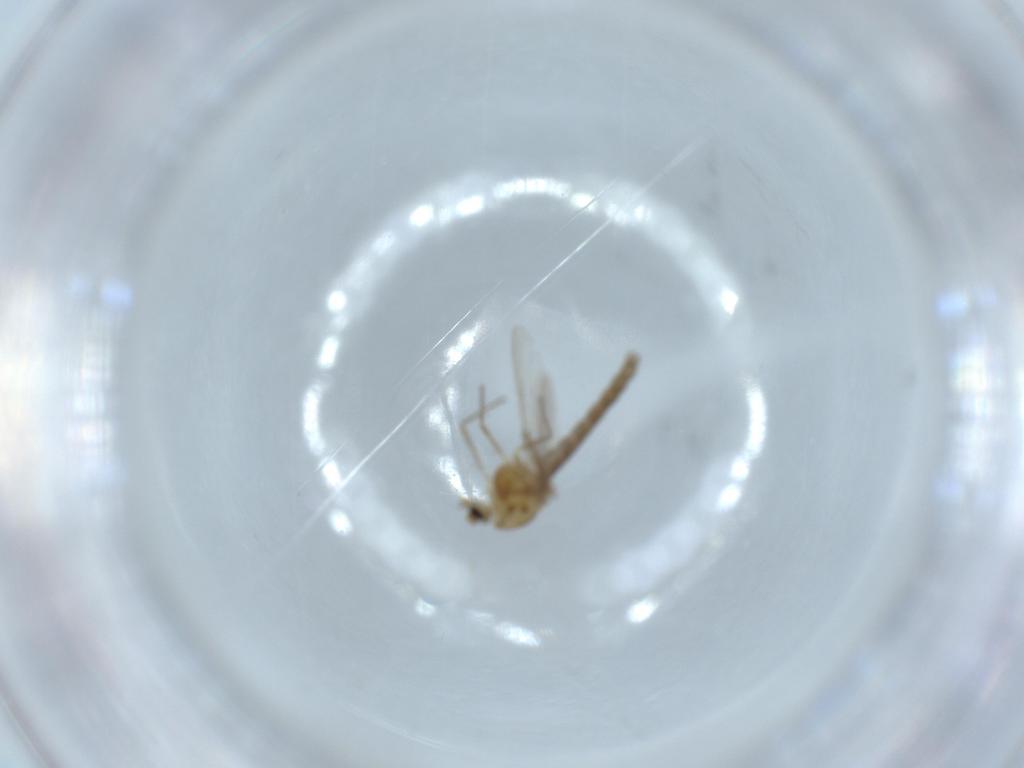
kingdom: Animalia
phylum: Arthropoda
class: Insecta
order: Diptera
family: Chironomidae
